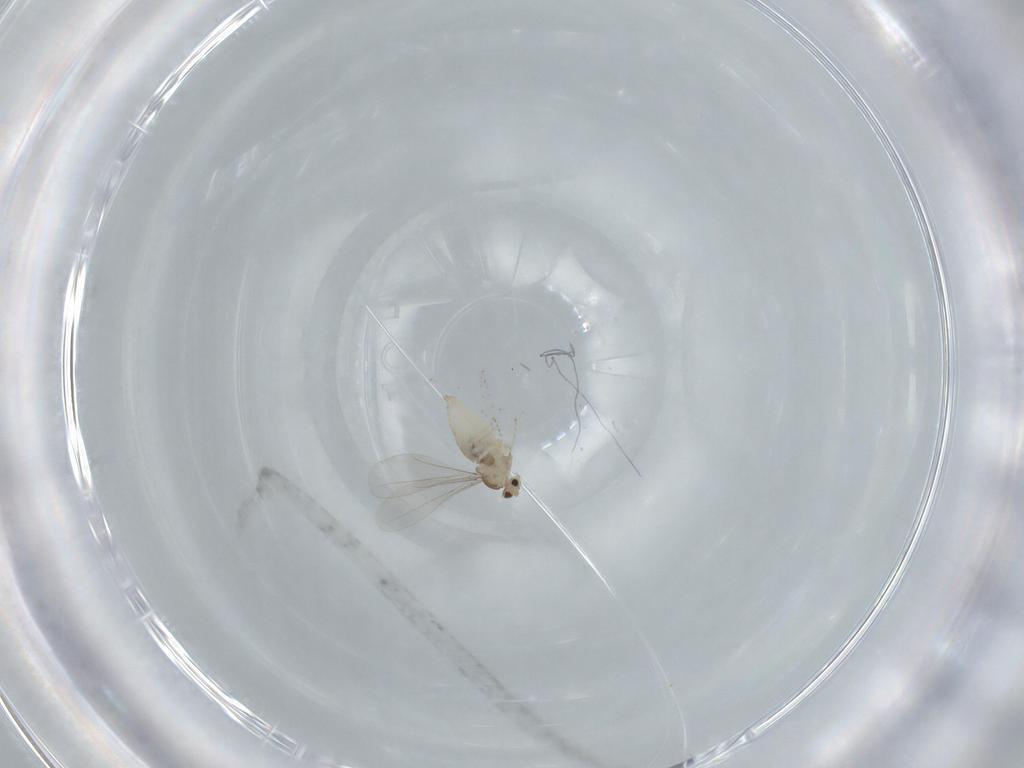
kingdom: Animalia
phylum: Arthropoda
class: Insecta
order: Diptera
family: Cecidomyiidae
